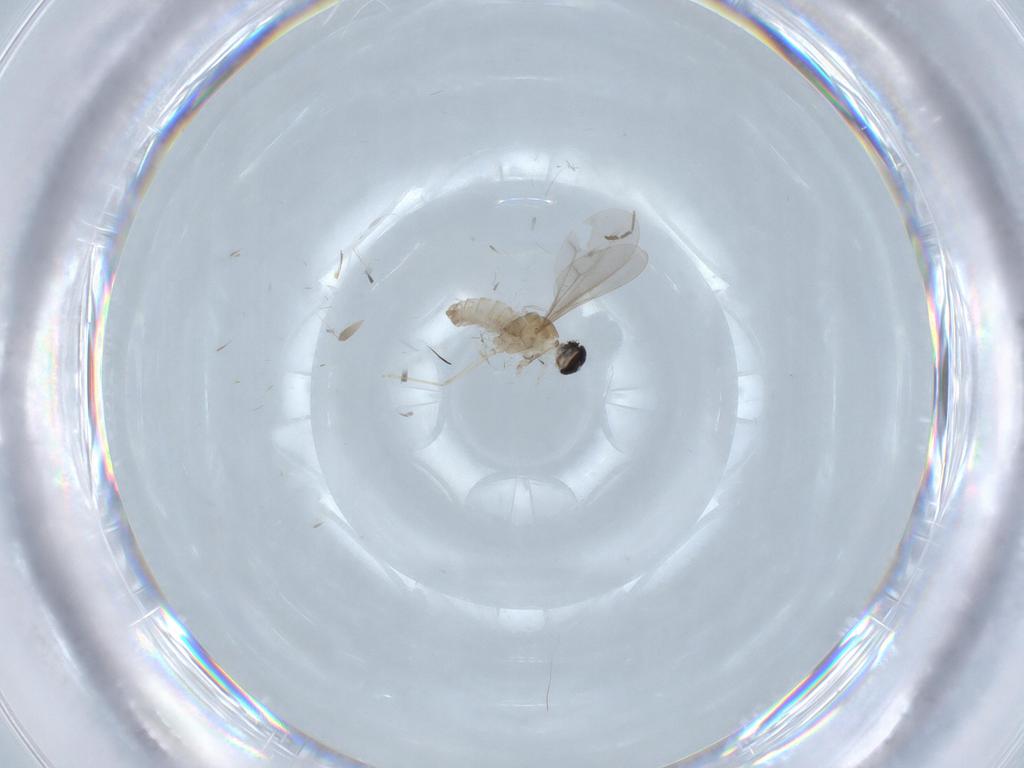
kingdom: Animalia
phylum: Arthropoda
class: Insecta
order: Diptera
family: Cecidomyiidae
